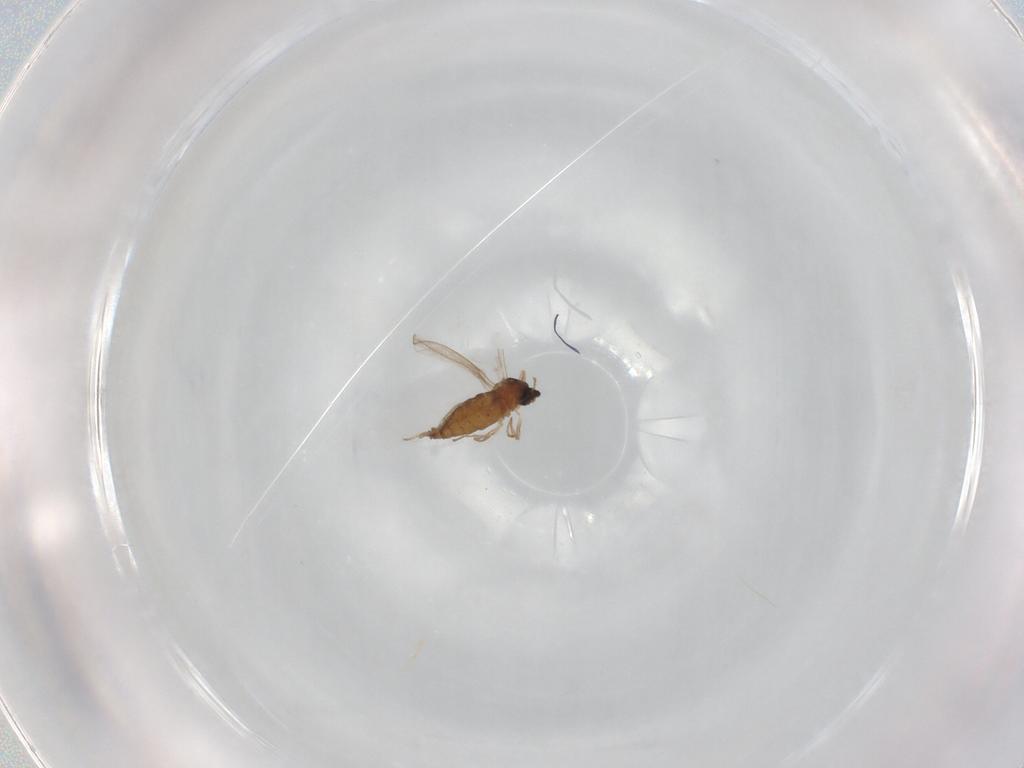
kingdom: Animalia
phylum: Arthropoda
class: Insecta
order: Diptera
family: Cecidomyiidae
